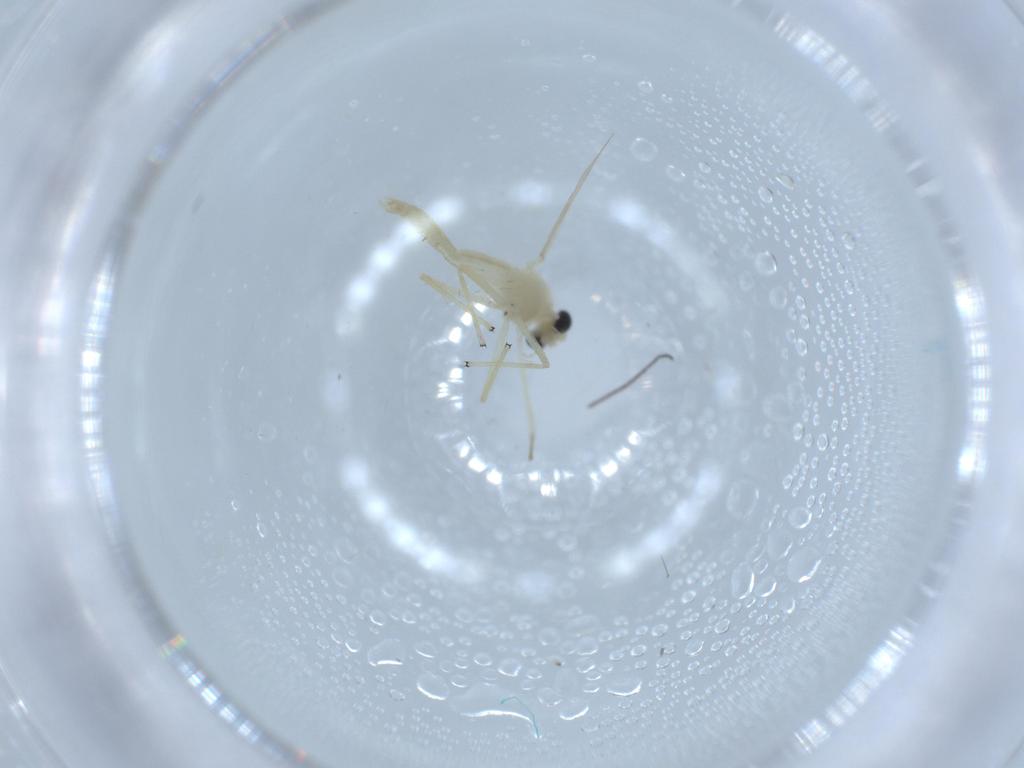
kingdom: Animalia
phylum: Arthropoda
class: Insecta
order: Diptera
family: Chironomidae
